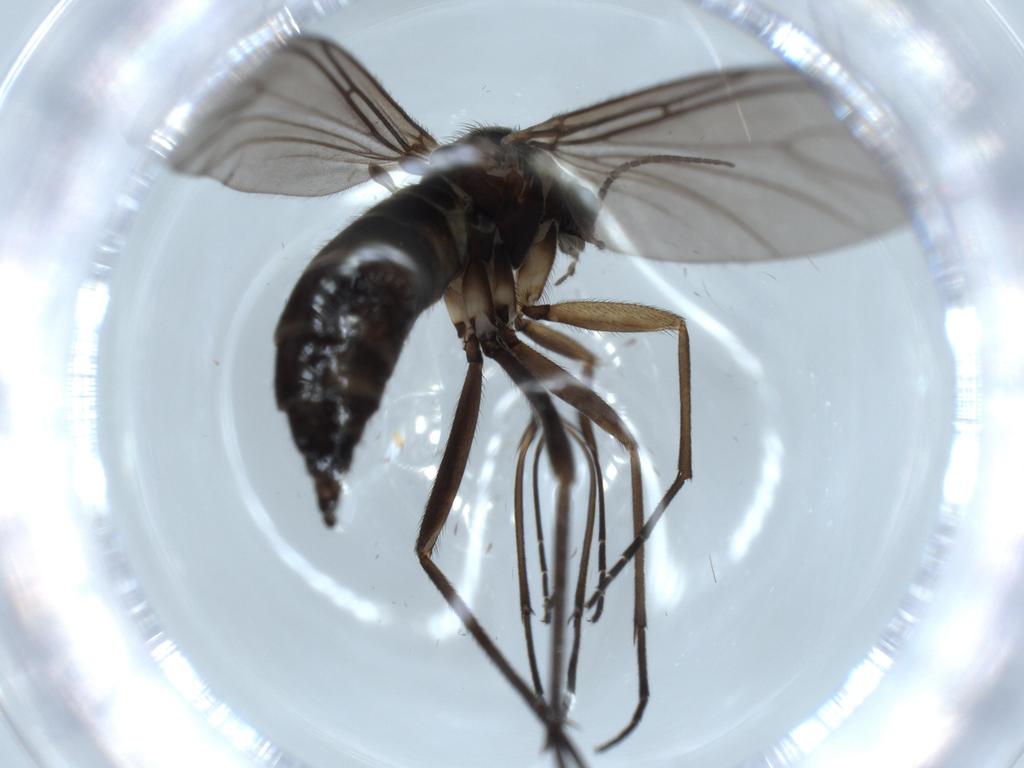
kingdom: Animalia
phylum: Arthropoda
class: Insecta
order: Diptera
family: Sciaridae
